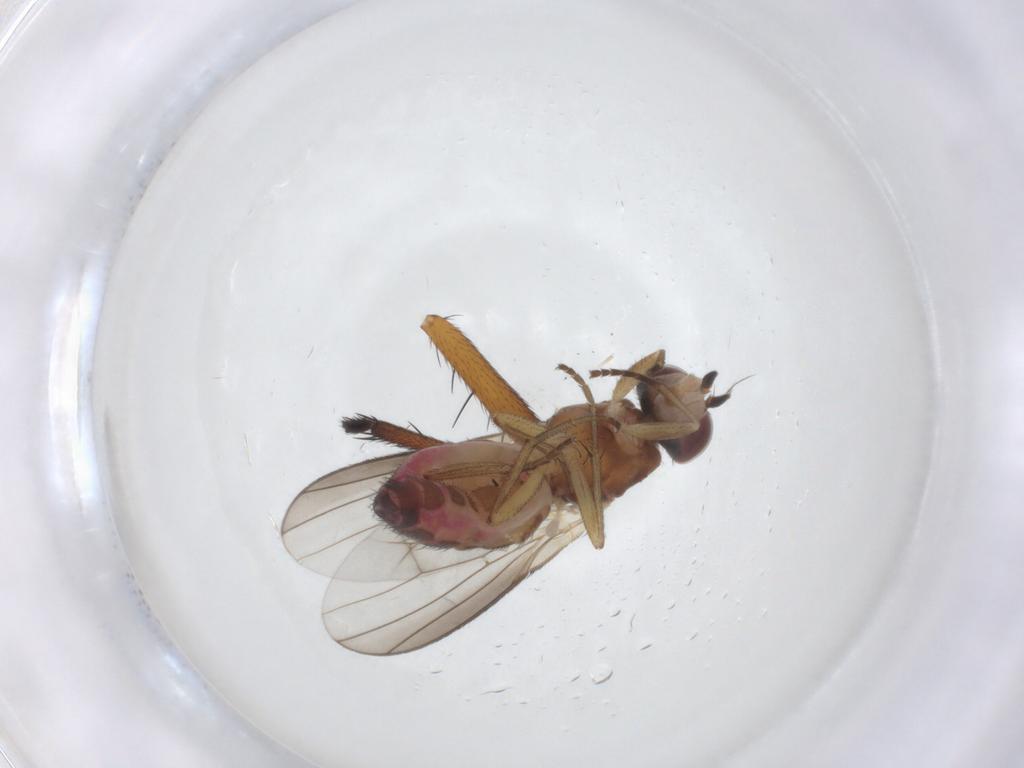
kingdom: Animalia
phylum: Arthropoda
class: Insecta
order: Diptera
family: Heleomyzidae
